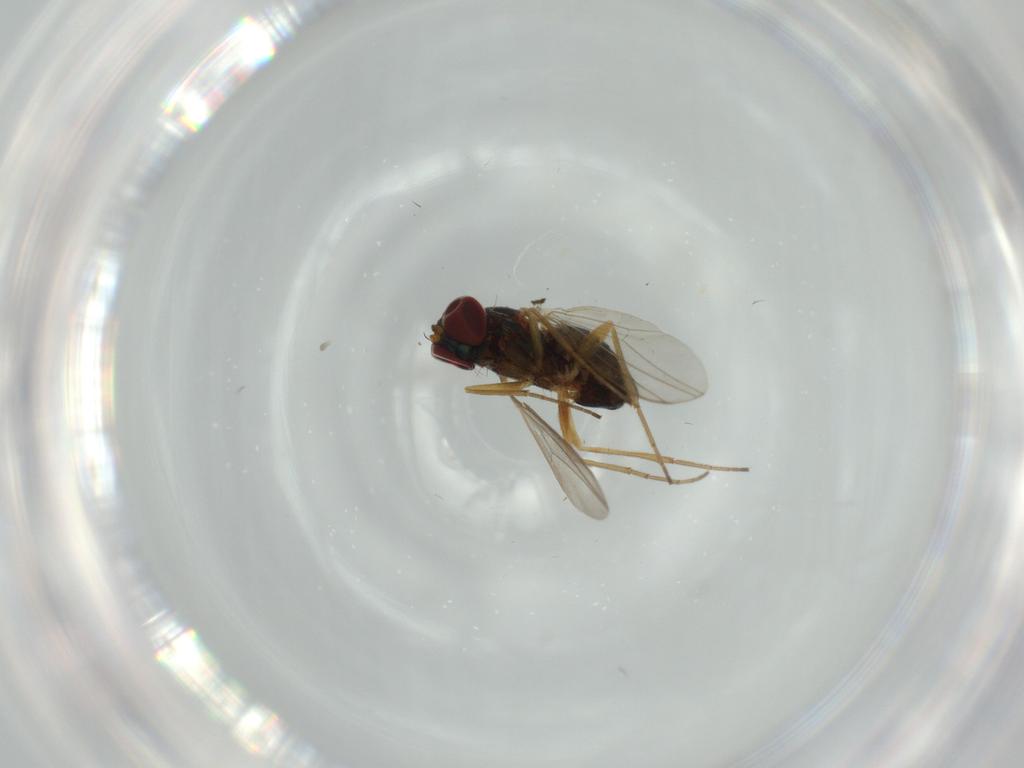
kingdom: Animalia
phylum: Arthropoda
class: Insecta
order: Diptera
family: Dolichopodidae
